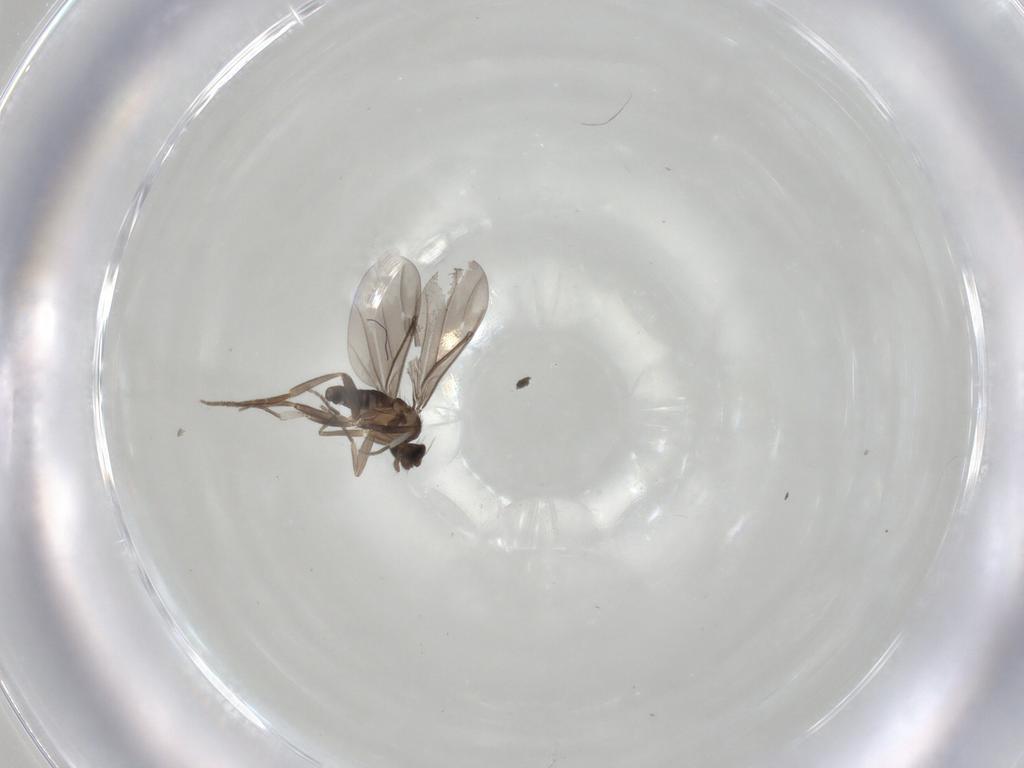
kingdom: Animalia
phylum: Arthropoda
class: Insecta
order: Diptera
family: Phoridae
